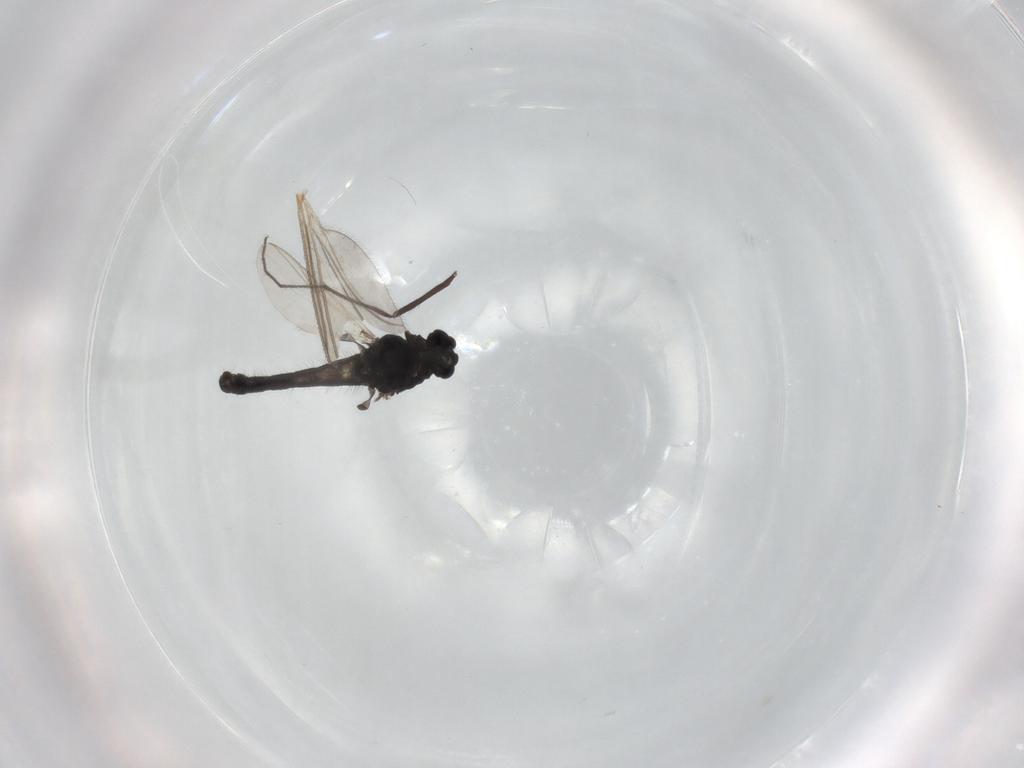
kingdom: Animalia
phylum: Arthropoda
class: Insecta
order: Diptera
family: Sciaridae
